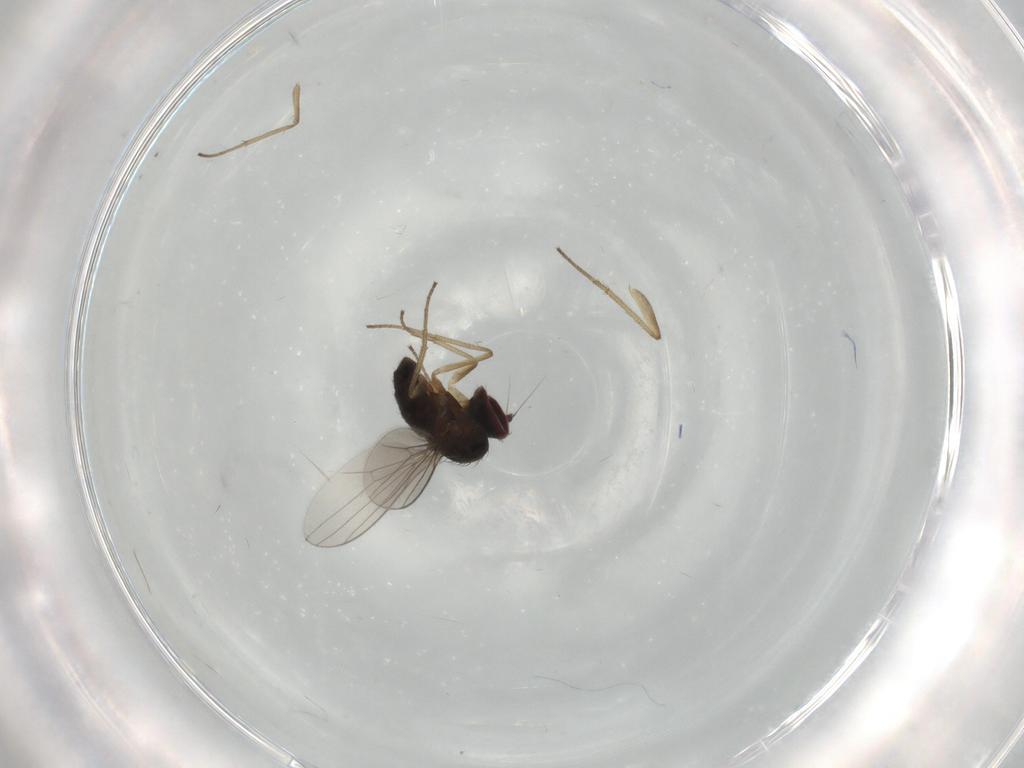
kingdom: Animalia
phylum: Arthropoda
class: Insecta
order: Diptera
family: Dolichopodidae
